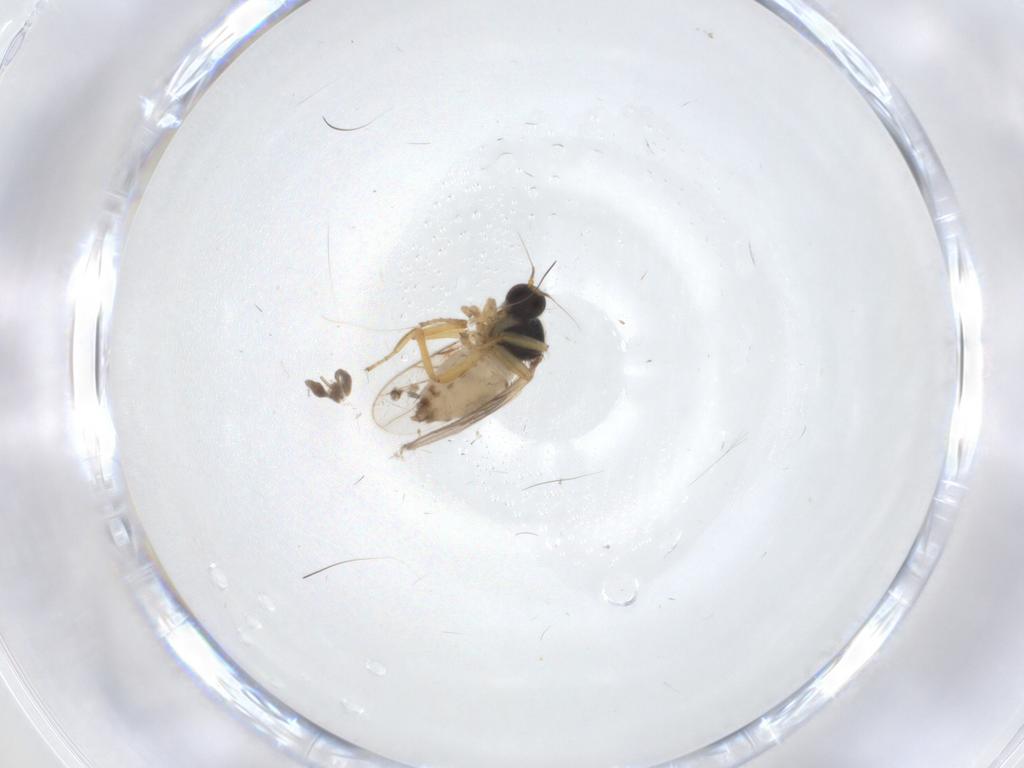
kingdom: Animalia
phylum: Arthropoda
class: Insecta
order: Diptera
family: Hybotidae
